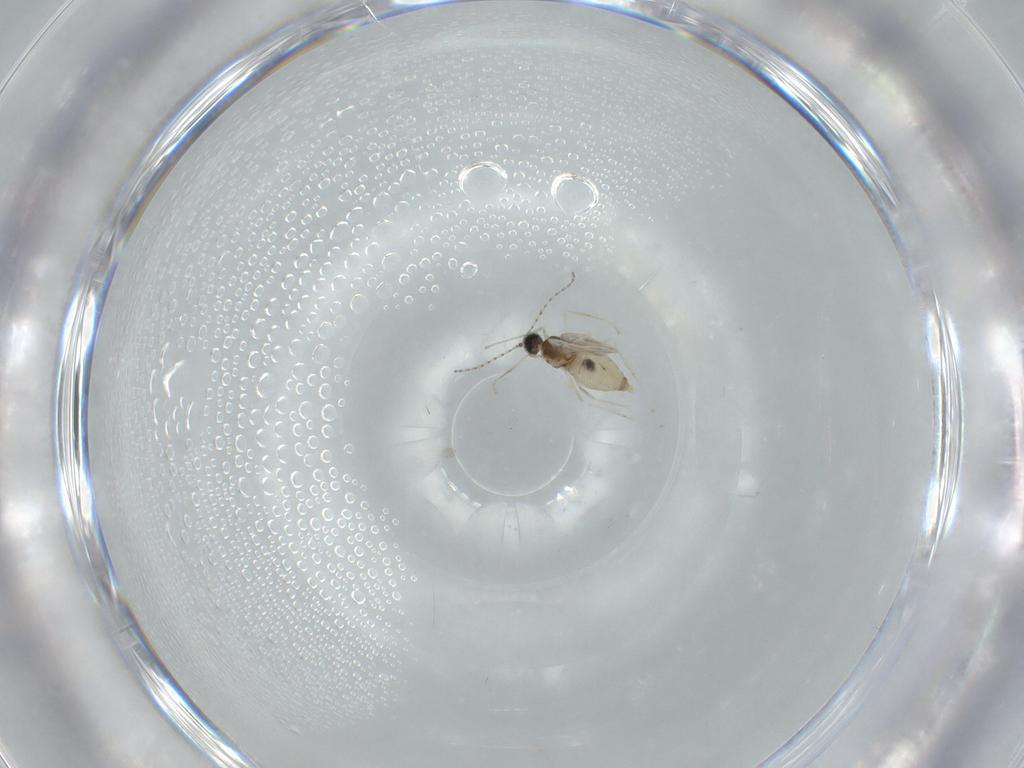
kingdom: Animalia
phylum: Arthropoda
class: Insecta
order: Diptera
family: Cecidomyiidae
